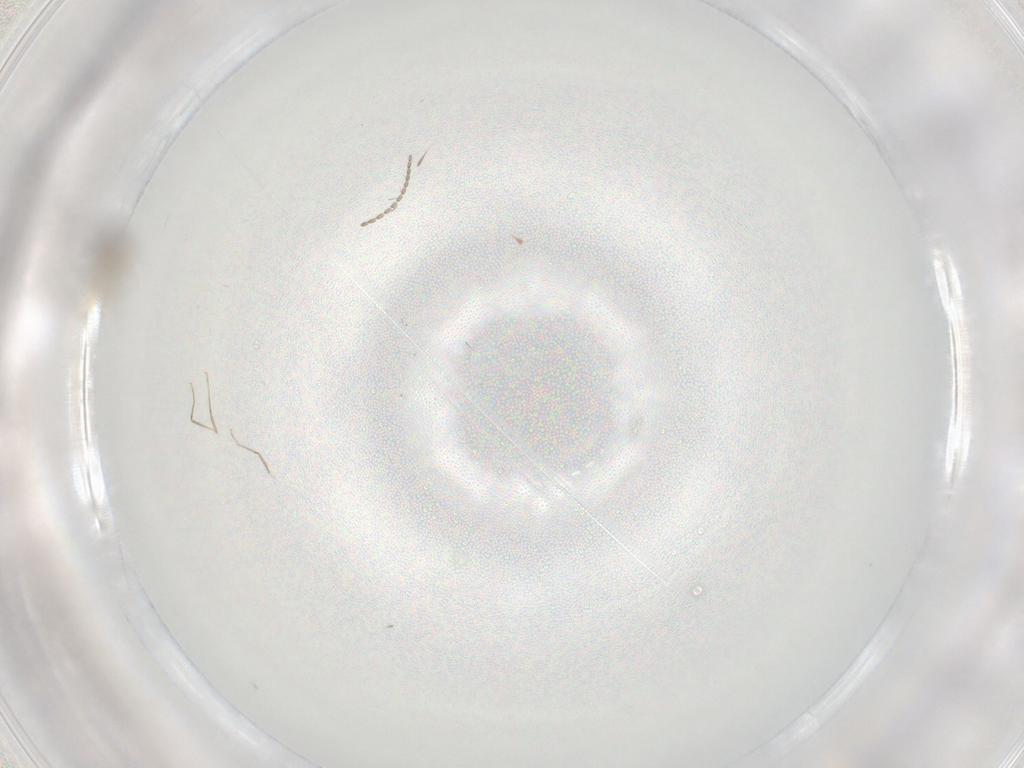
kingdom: Animalia
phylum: Arthropoda
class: Insecta
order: Diptera
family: Cecidomyiidae
